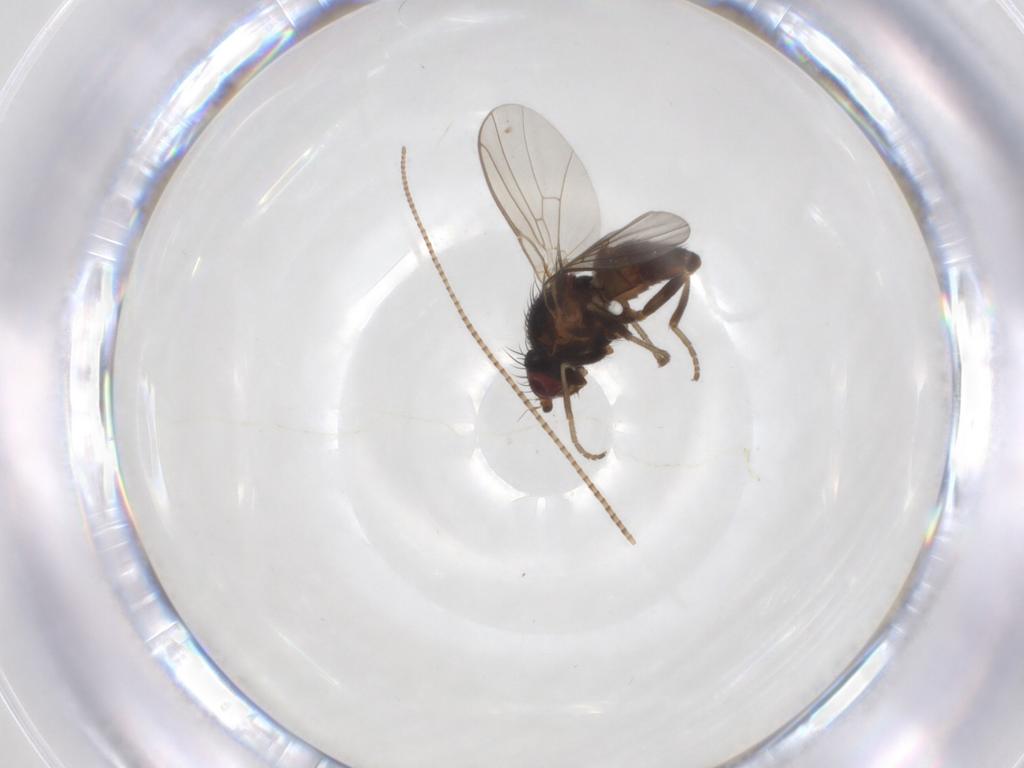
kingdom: Animalia
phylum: Arthropoda
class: Insecta
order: Diptera
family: Agromyzidae
